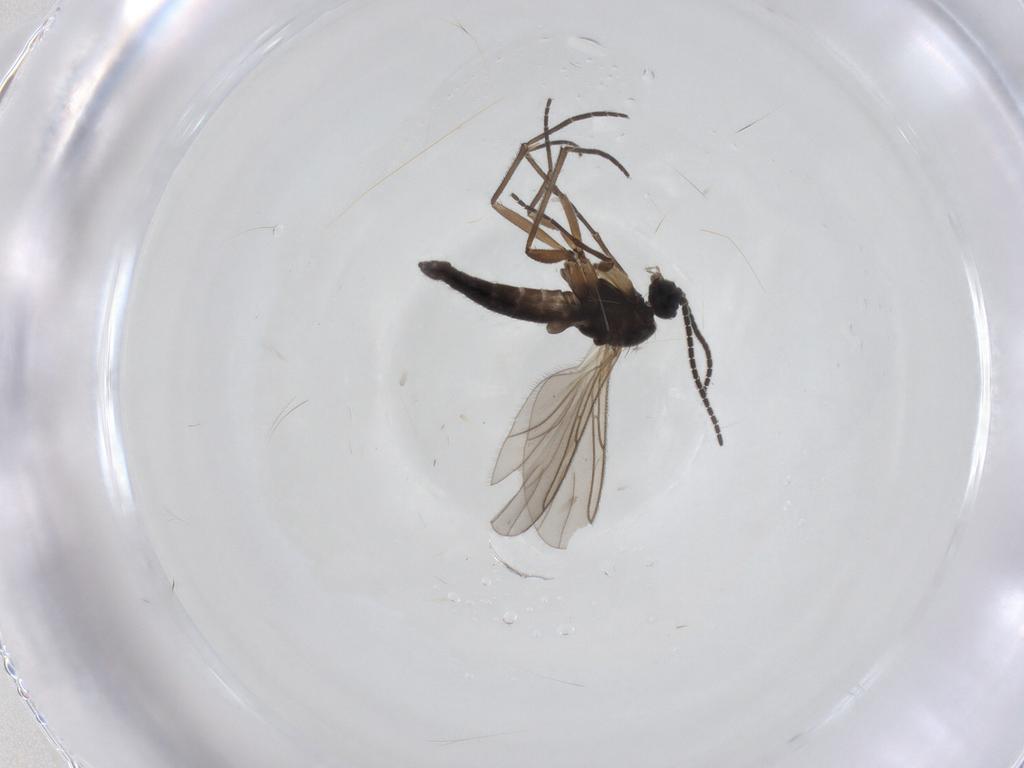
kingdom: Animalia
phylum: Arthropoda
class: Insecta
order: Diptera
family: Sciaridae
